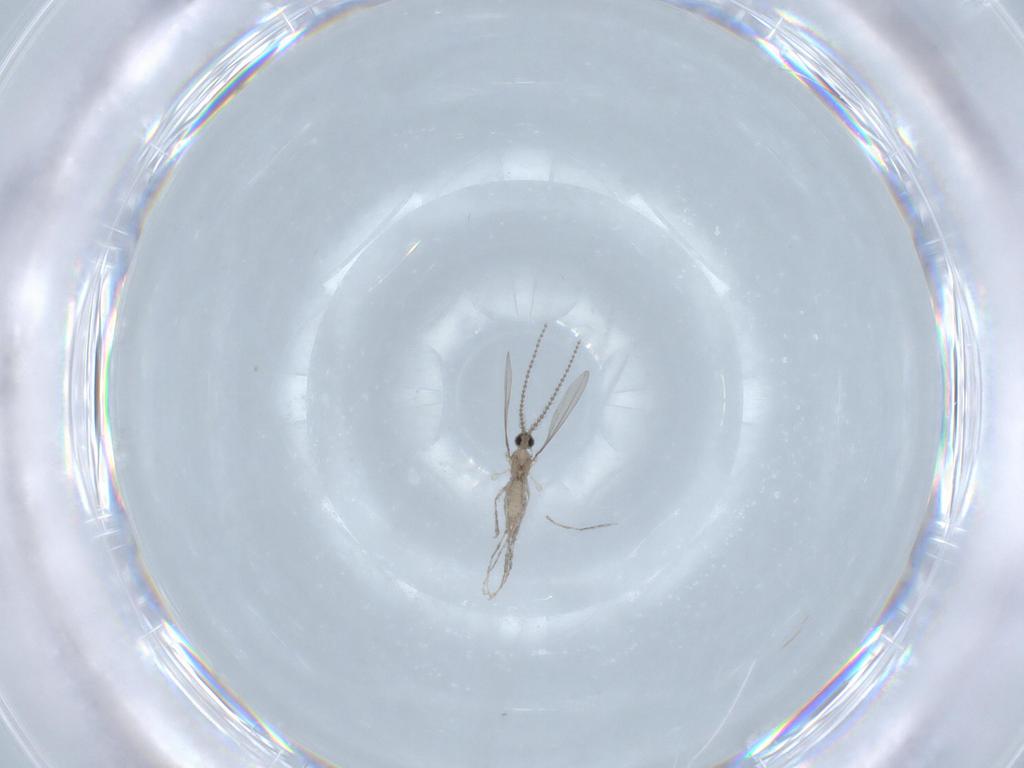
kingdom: Animalia
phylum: Arthropoda
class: Insecta
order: Diptera
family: Cecidomyiidae
